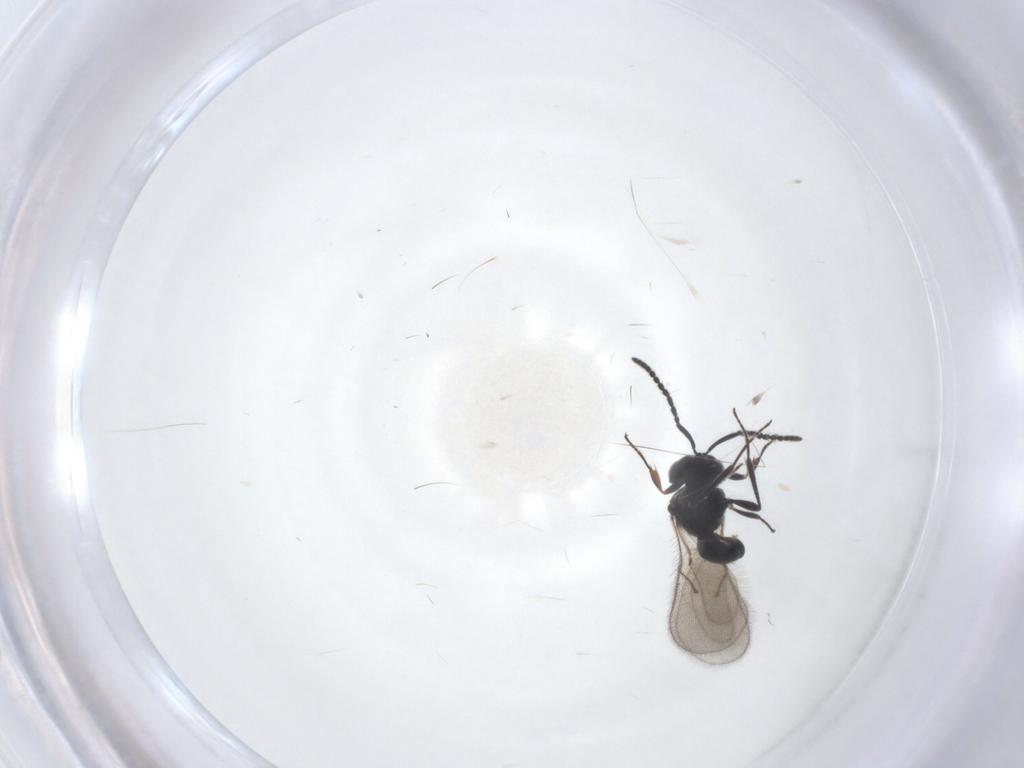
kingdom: Animalia
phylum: Arthropoda
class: Insecta
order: Hymenoptera
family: Scelionidae
